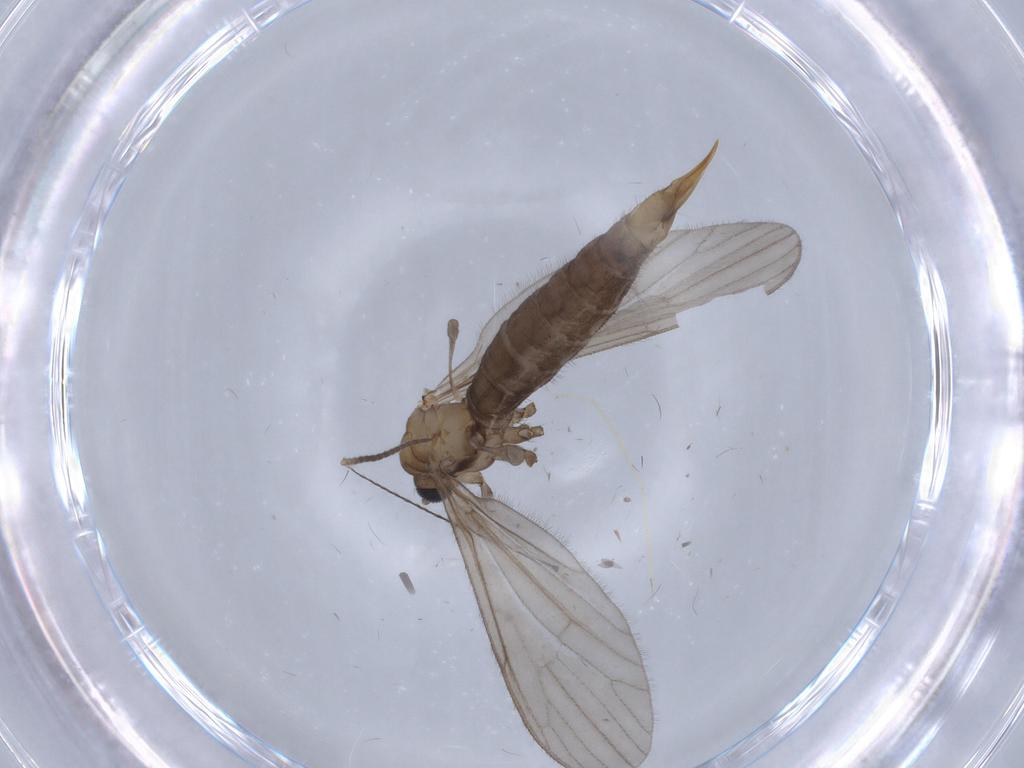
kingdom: Animalia
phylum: Arthropoda
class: Insecta
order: Diptera
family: Limoniidae
